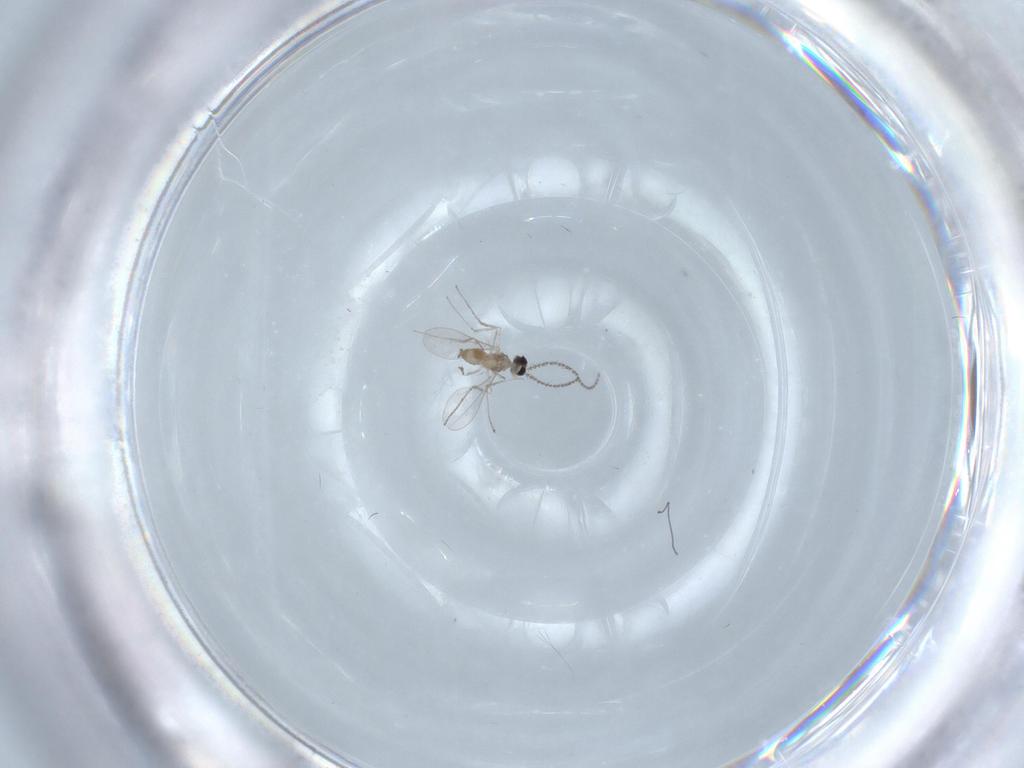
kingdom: Animalia
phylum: Arthropoda
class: Insecta
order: Diptera
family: Cecidomyiidae
